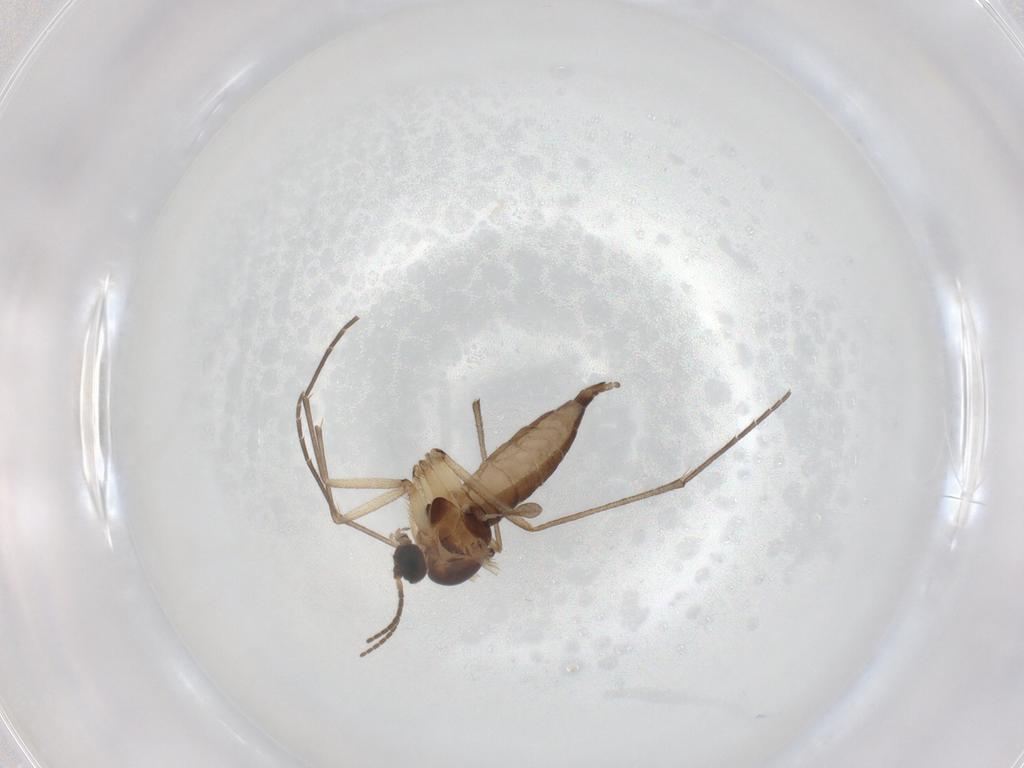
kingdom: Animalia
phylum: Arthropoda
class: Insecta
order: Diptera
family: Sciaridae
